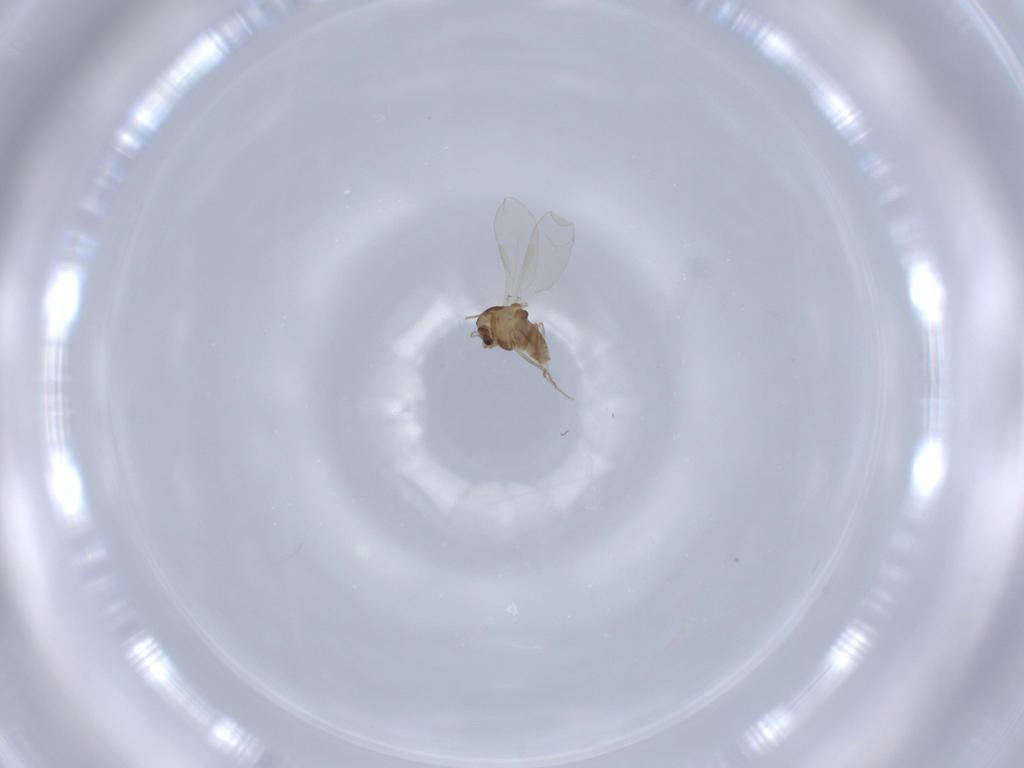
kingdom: Animalia
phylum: Arthropoda
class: Insecta
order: Diptera
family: Chironomidae
